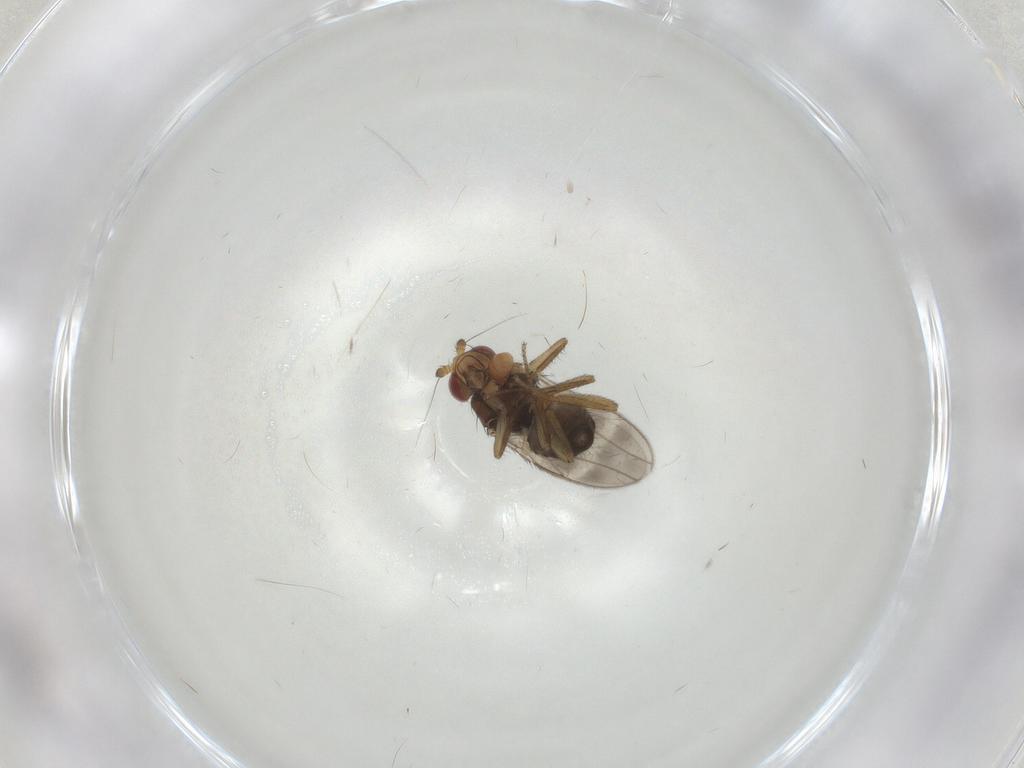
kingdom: Animalia
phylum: Arthropoda
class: Insecta
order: Diptera
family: Sphaeroceridae
